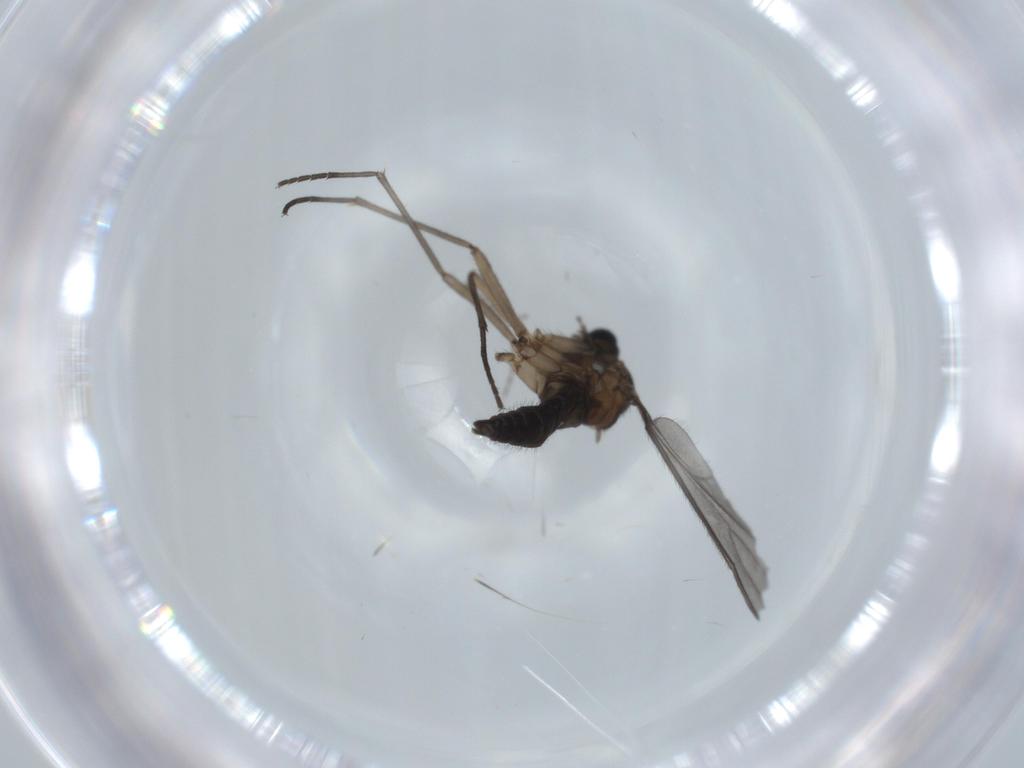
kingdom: Animalia
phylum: Arthropoda
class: Insecta
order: Diptera
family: Sciaridae
